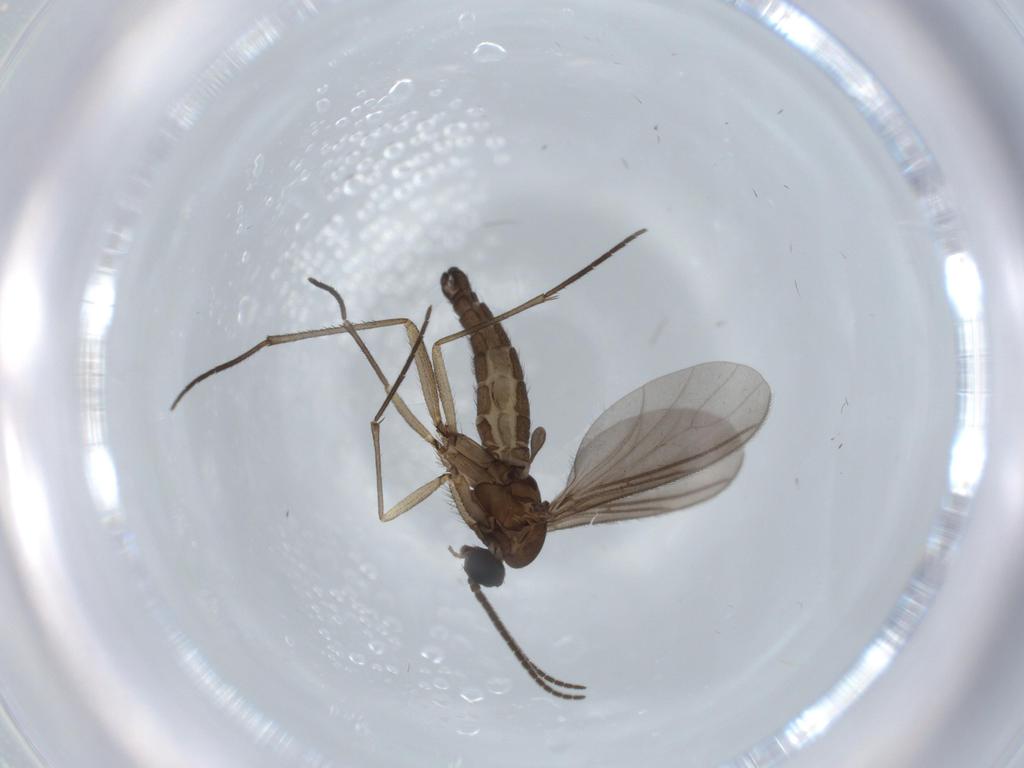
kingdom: Animalia
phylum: Arthropoda
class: Insecta
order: Diptera
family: Sciaridae
